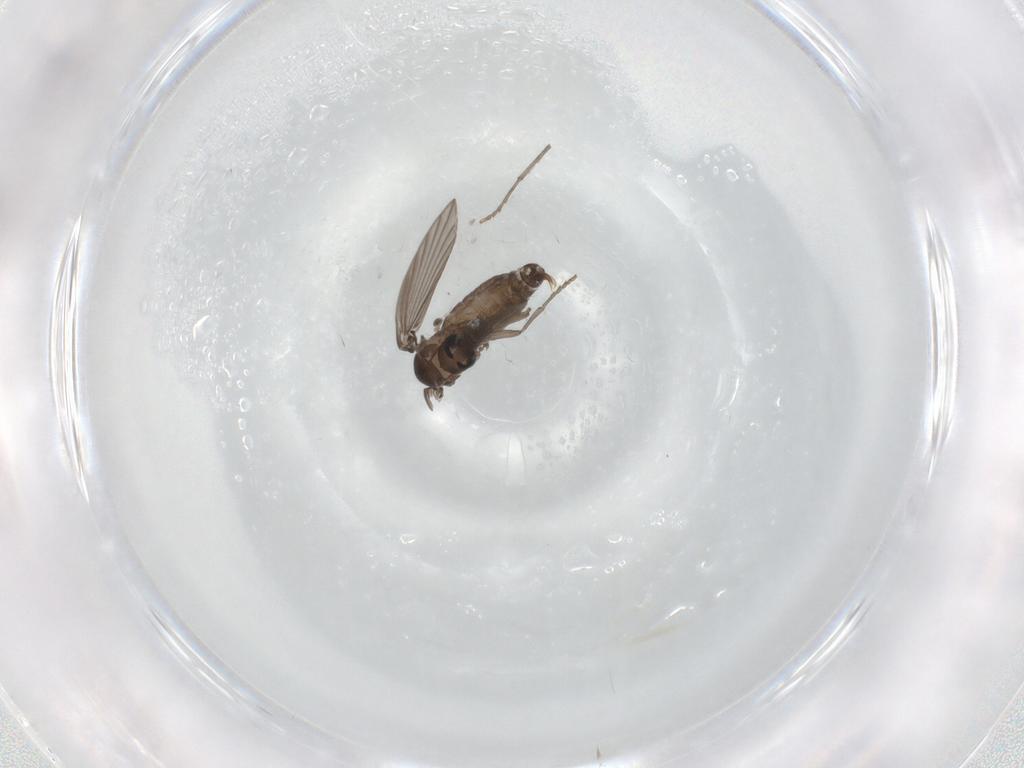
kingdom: Animalia
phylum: Arthropoda
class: Insecta
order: Diptera
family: Psychodidae
